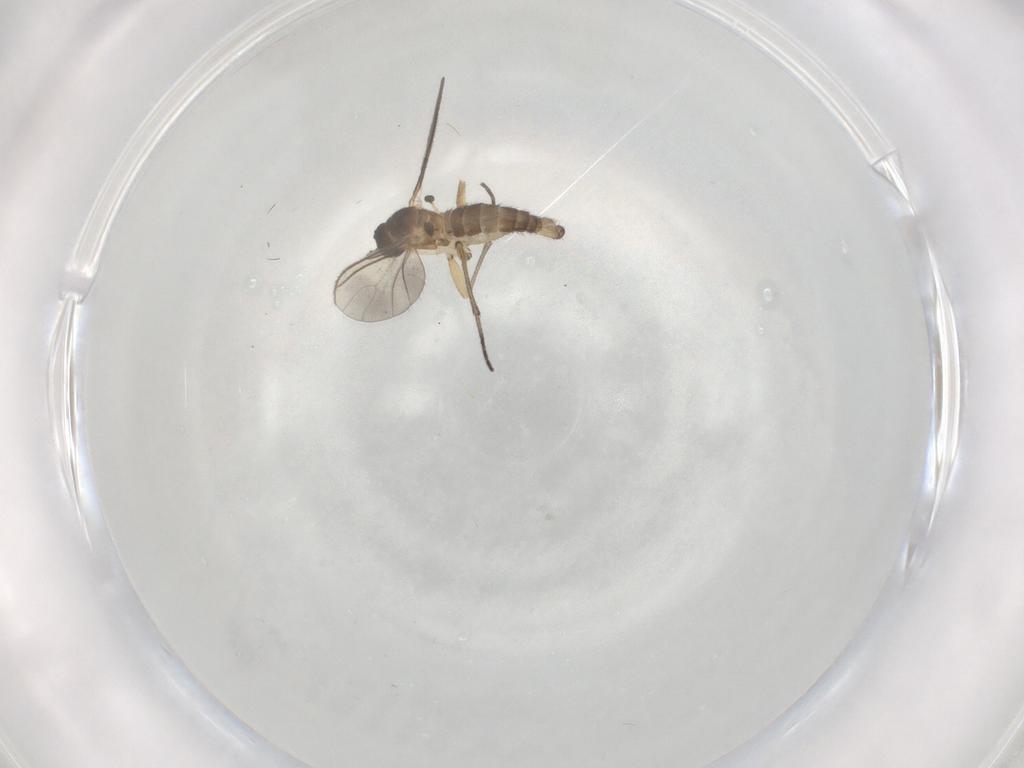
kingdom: Animalia
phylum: Arthropoda
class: Insecta
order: Diptera
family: Sciaridae
